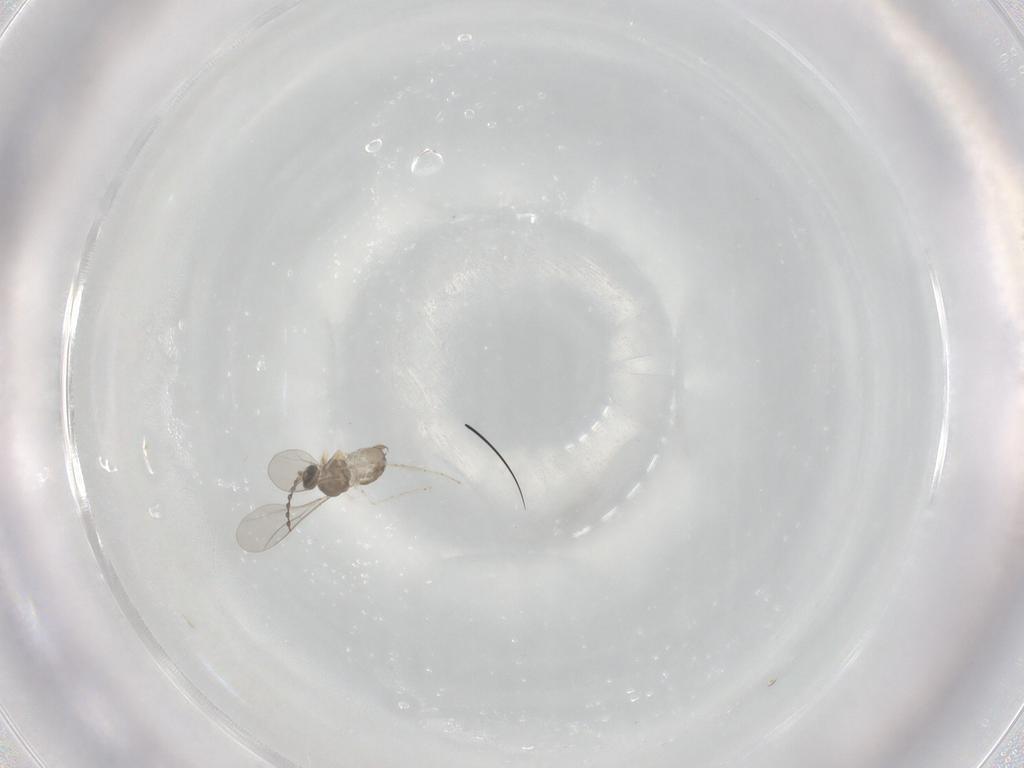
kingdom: Animalia
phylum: Arthropoda
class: Insecta
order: Diptera
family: Cecidomyiidae
